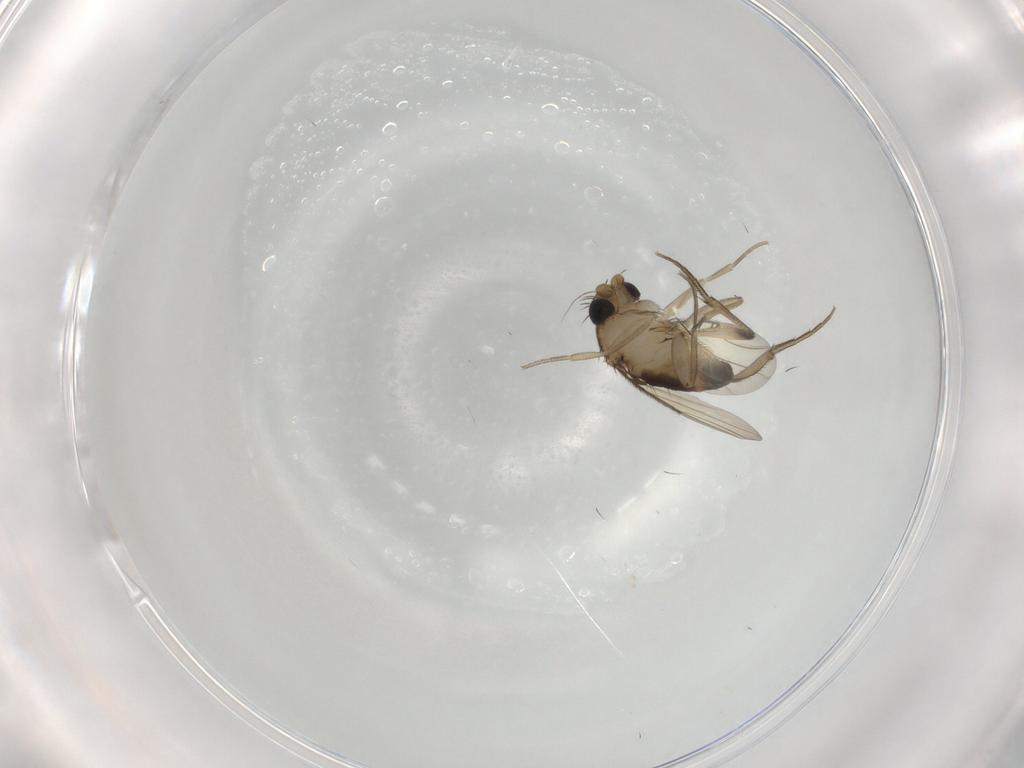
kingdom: Animalia
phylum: Arthropoda
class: Insecta
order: Diptera
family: Phoridae
